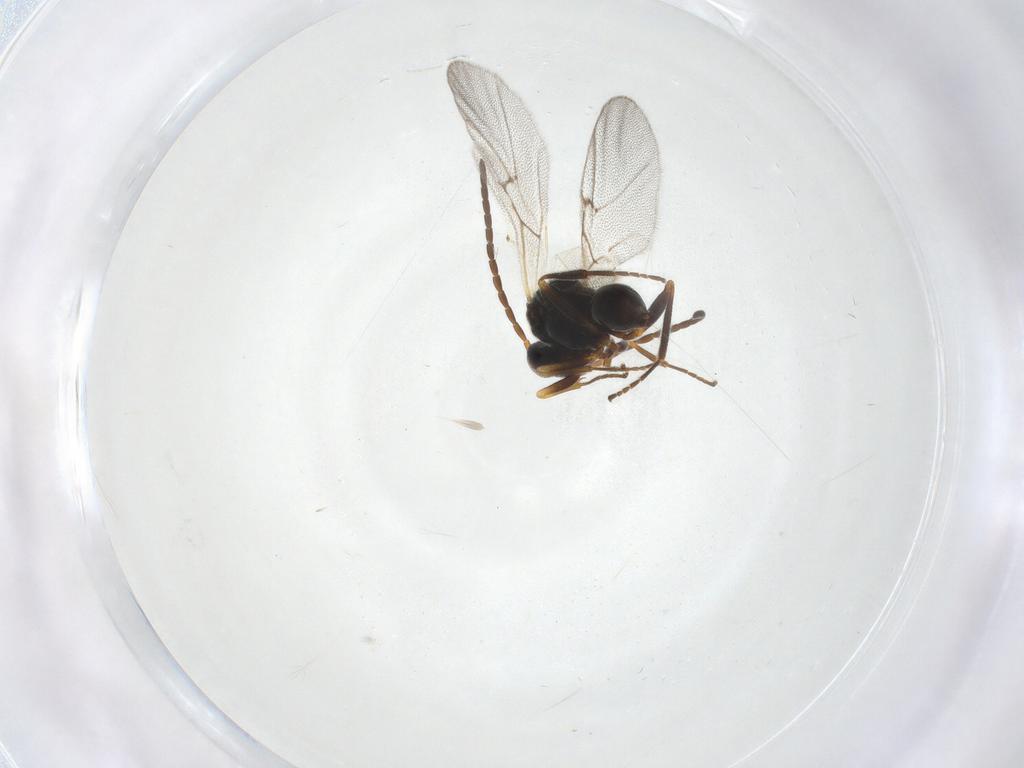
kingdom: Animalia
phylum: Arthropoda
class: Insecta
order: Hymenoptera
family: Cynipidae
